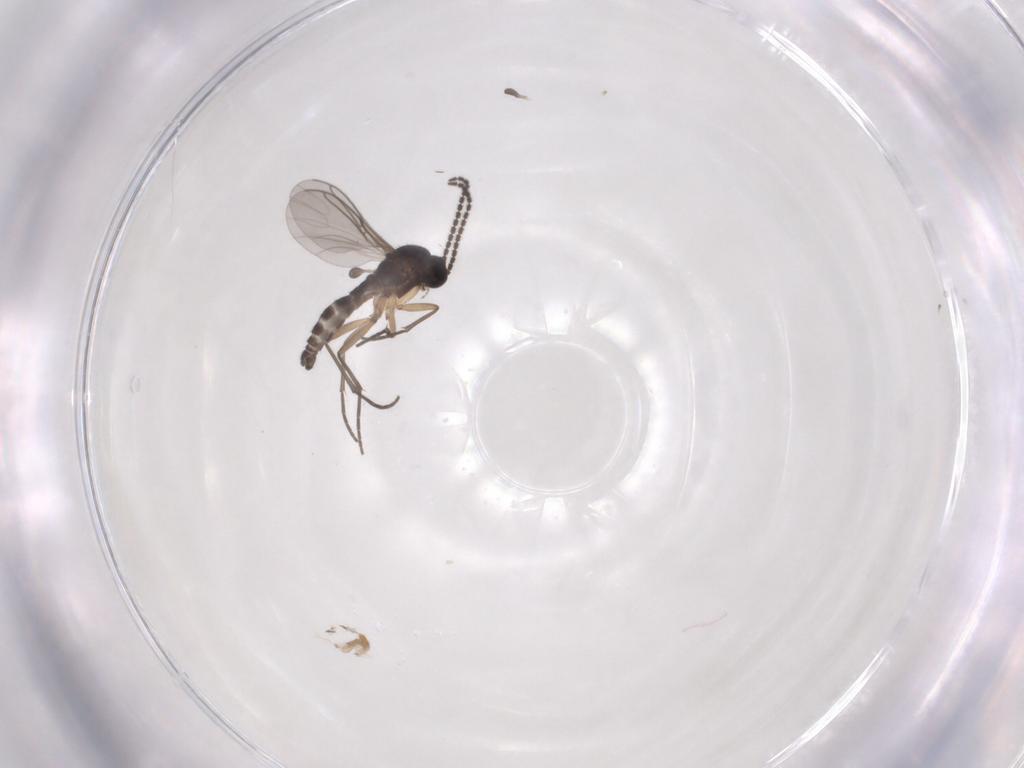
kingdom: Animalia
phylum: Arthropoda
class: Insecta
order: Diptera
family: Sciaridae
